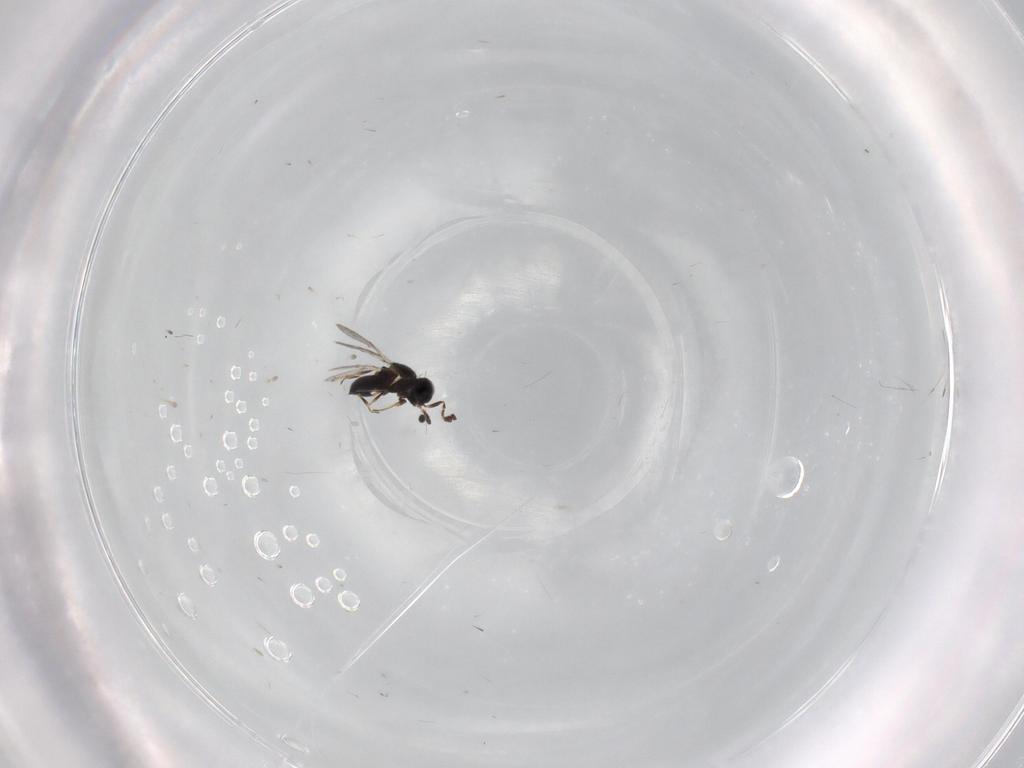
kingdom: Animalia
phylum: Arthropoda
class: Insecta
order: Hymenoptera
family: Scelionidae
